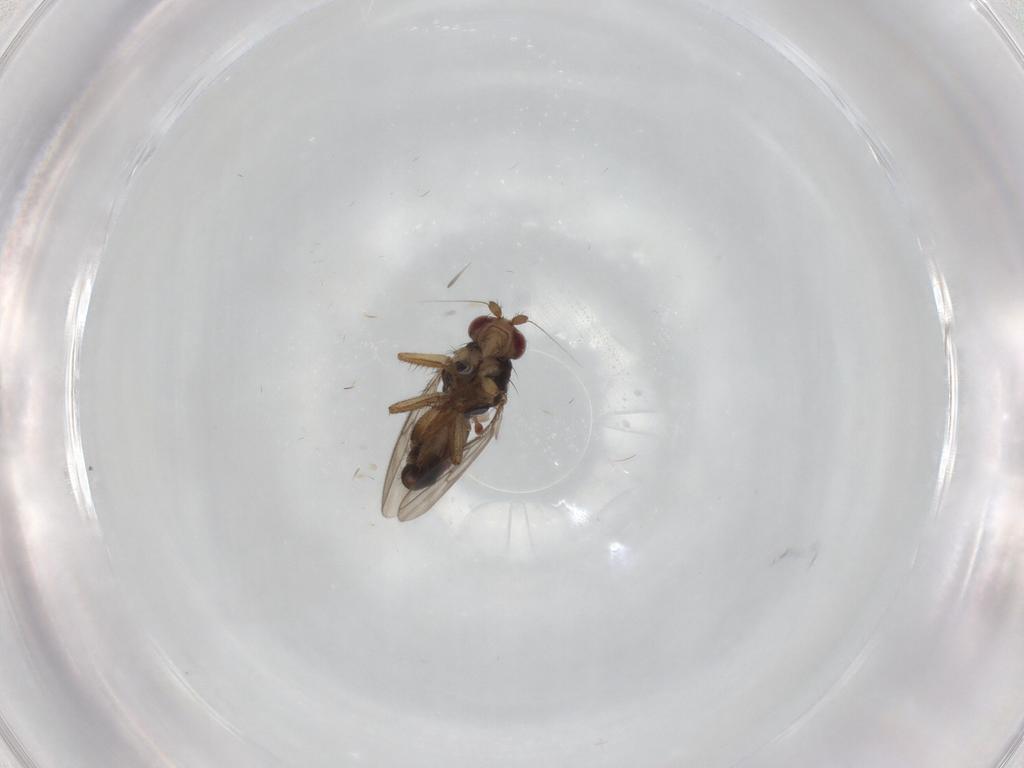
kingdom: Animalia
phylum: Arthropoda
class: Insecta
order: Diptera
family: Sphaeroceridae
